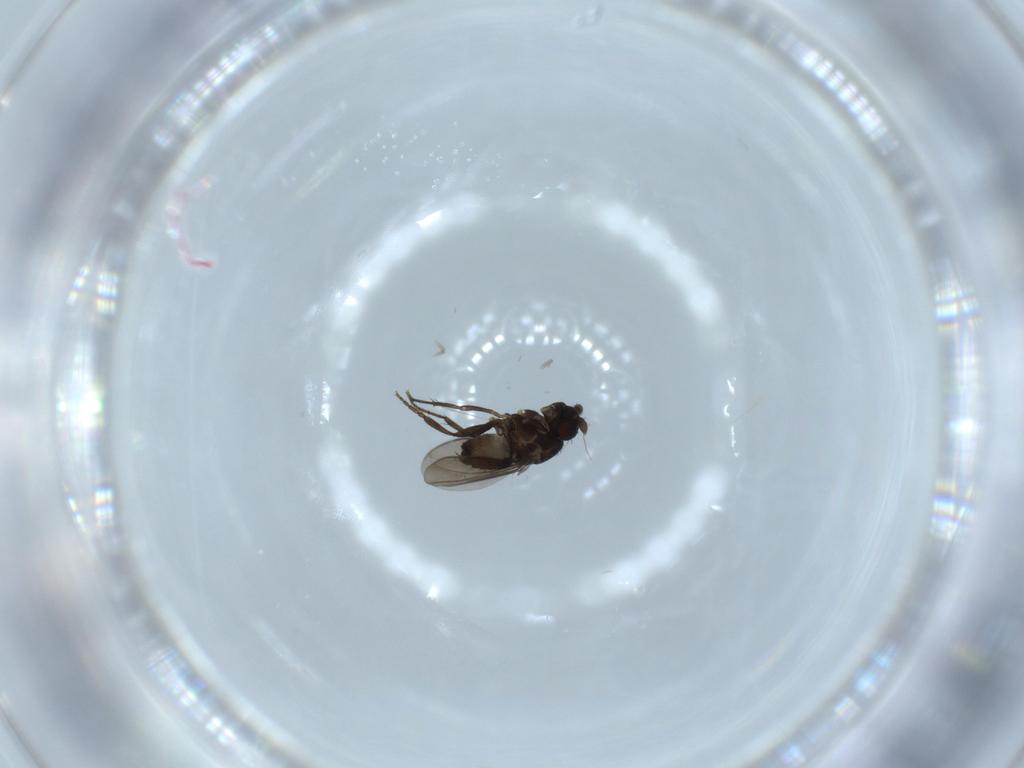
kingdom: Animalia
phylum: Arthropoda
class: Insecta
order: Diptera
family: Sphaeroceridae
